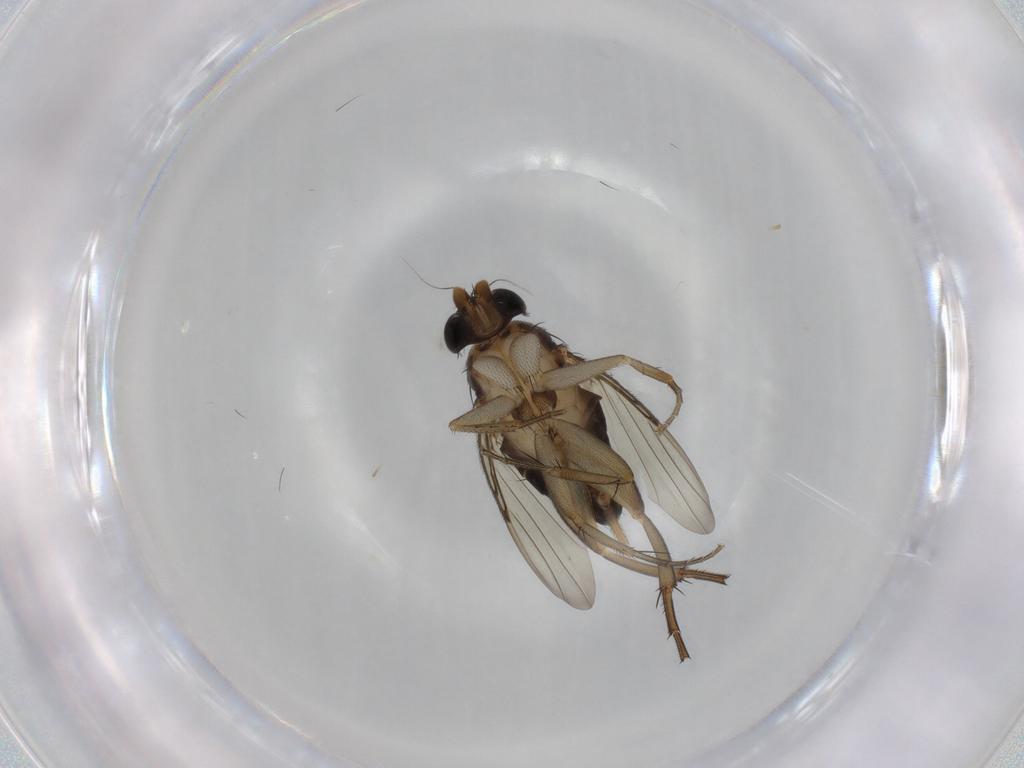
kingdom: Animalia
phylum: Arthropoda
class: Insecta
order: Diptera
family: Phoridae
